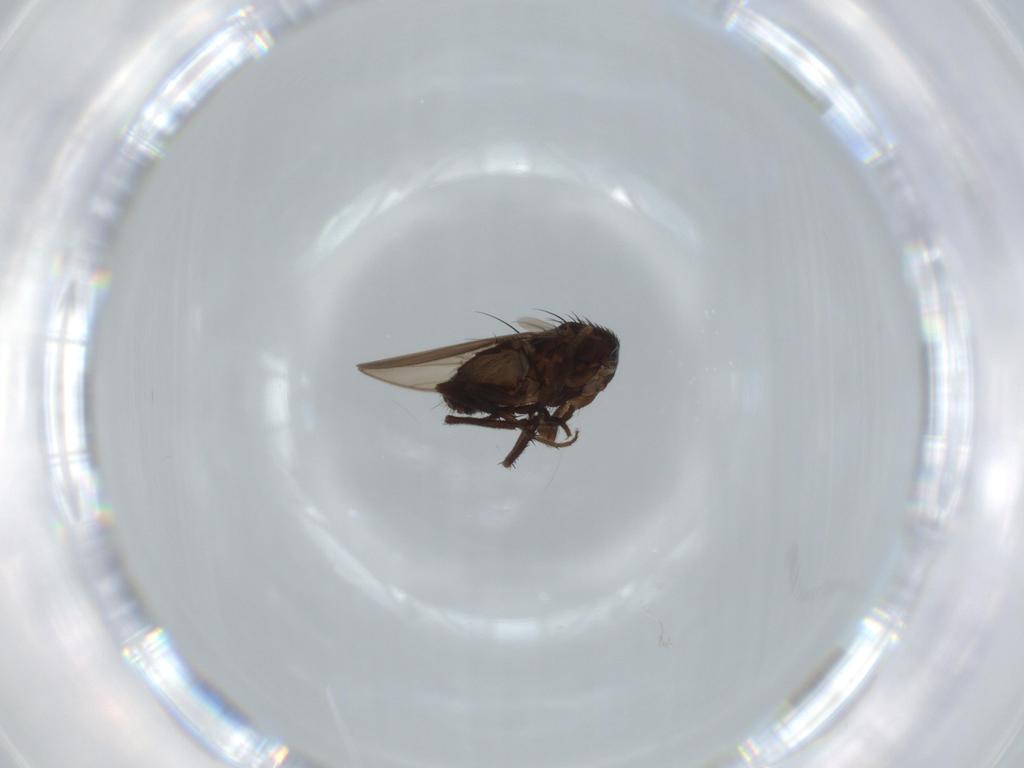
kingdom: Animalia
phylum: Arthropoda
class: Insecta
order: Diptera
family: Sphaeroceridae
